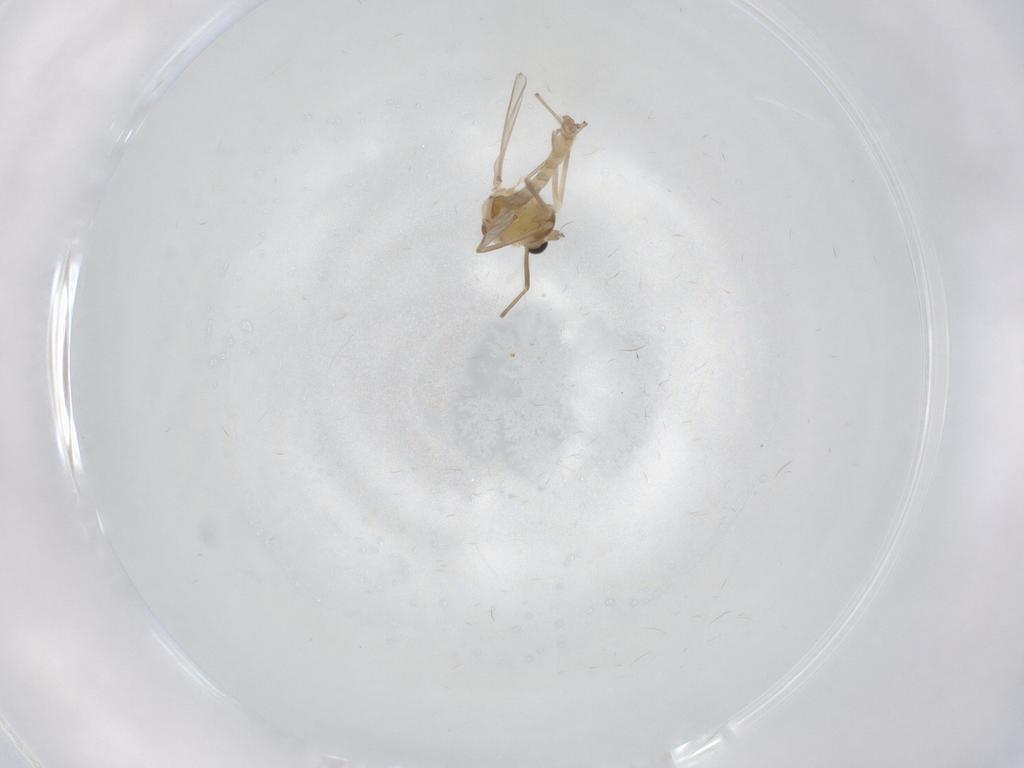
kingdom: Animalia
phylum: Arthropoda
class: Insecta
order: Diptera
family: Chironomidae
